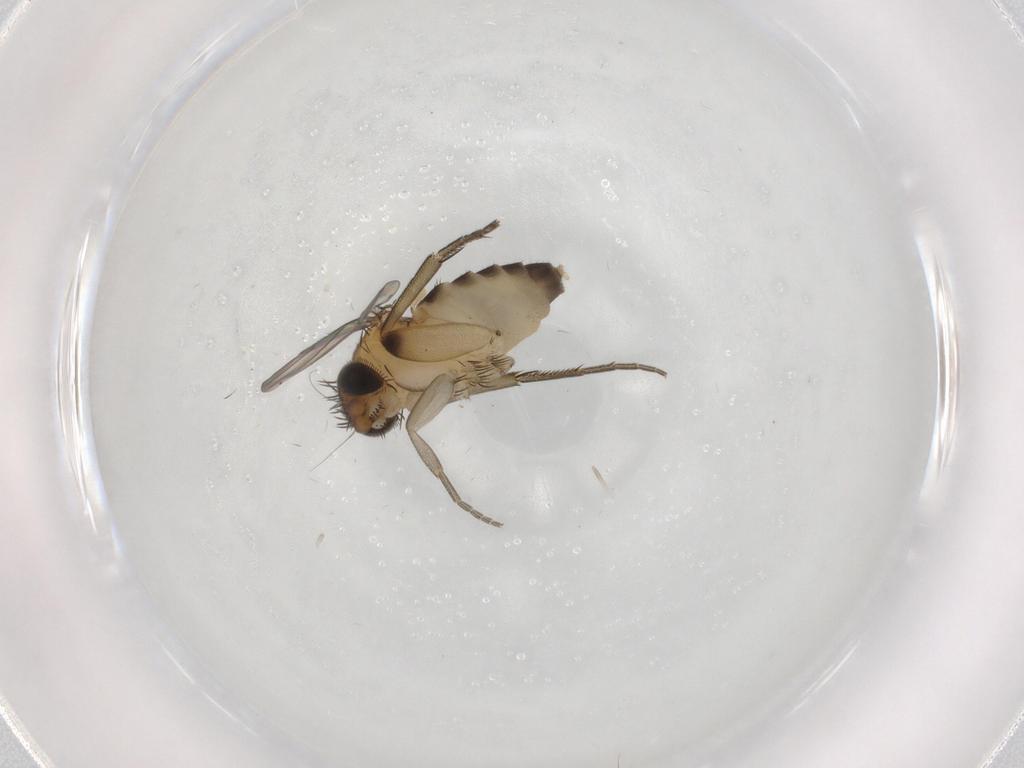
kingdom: Animalia
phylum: Arthropoda
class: Insecta
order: Diptera
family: Phoridae
